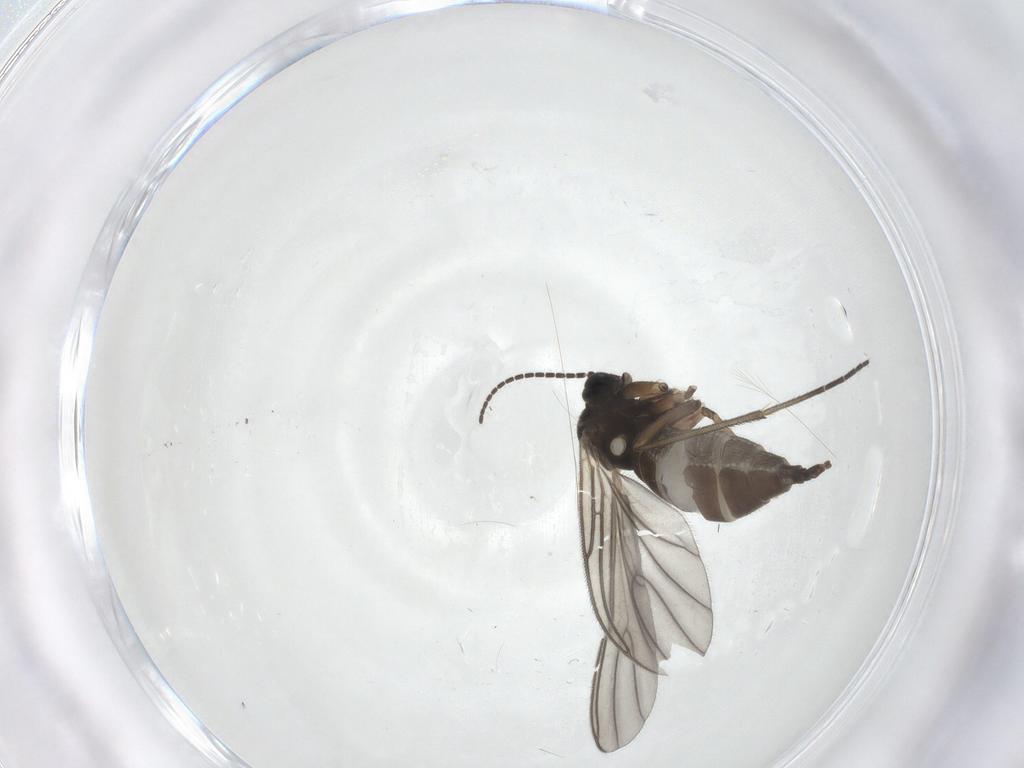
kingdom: Animalia
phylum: Arthropoda
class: Insecta
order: Diptera
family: Sciaridae
